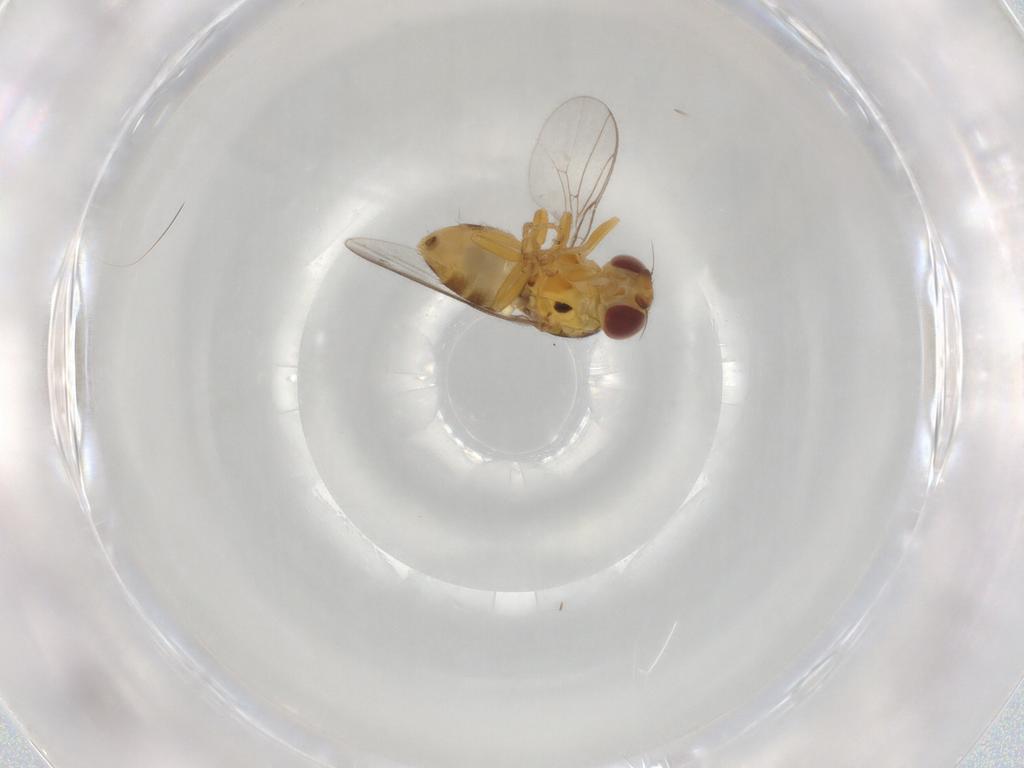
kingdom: Animalia
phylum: Arthropoda
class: Insecta
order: Diptera
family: Chloropidae
